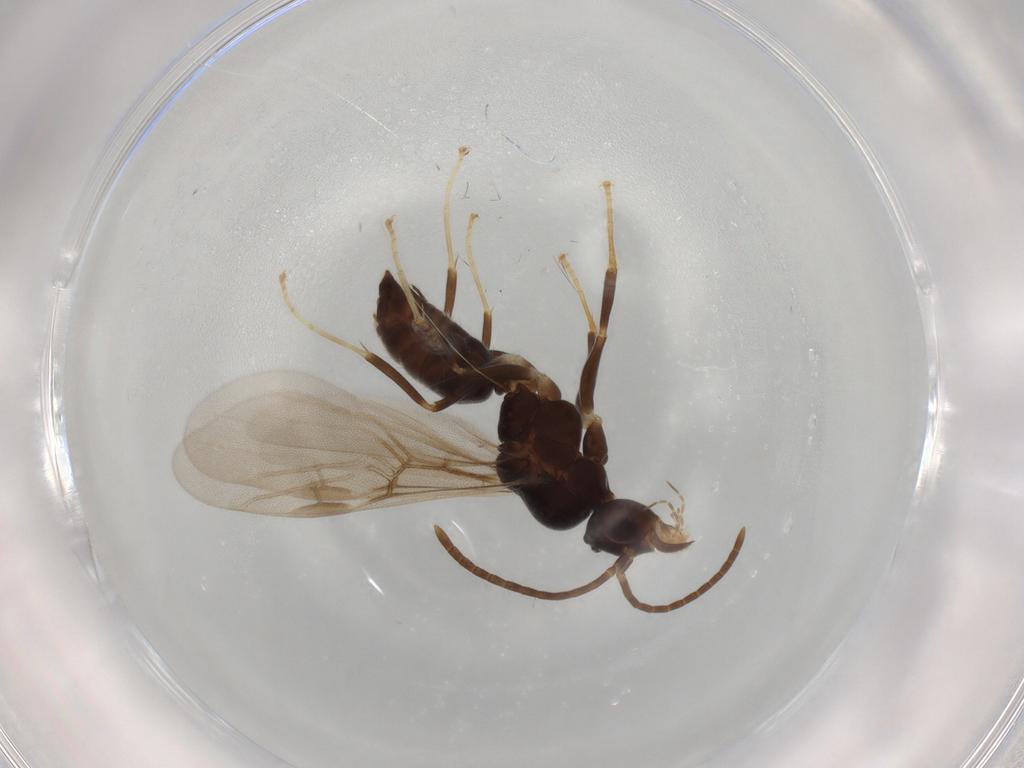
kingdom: Animalia
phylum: Arthropoda
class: Insecta
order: Hymenoptera
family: Formicidae
